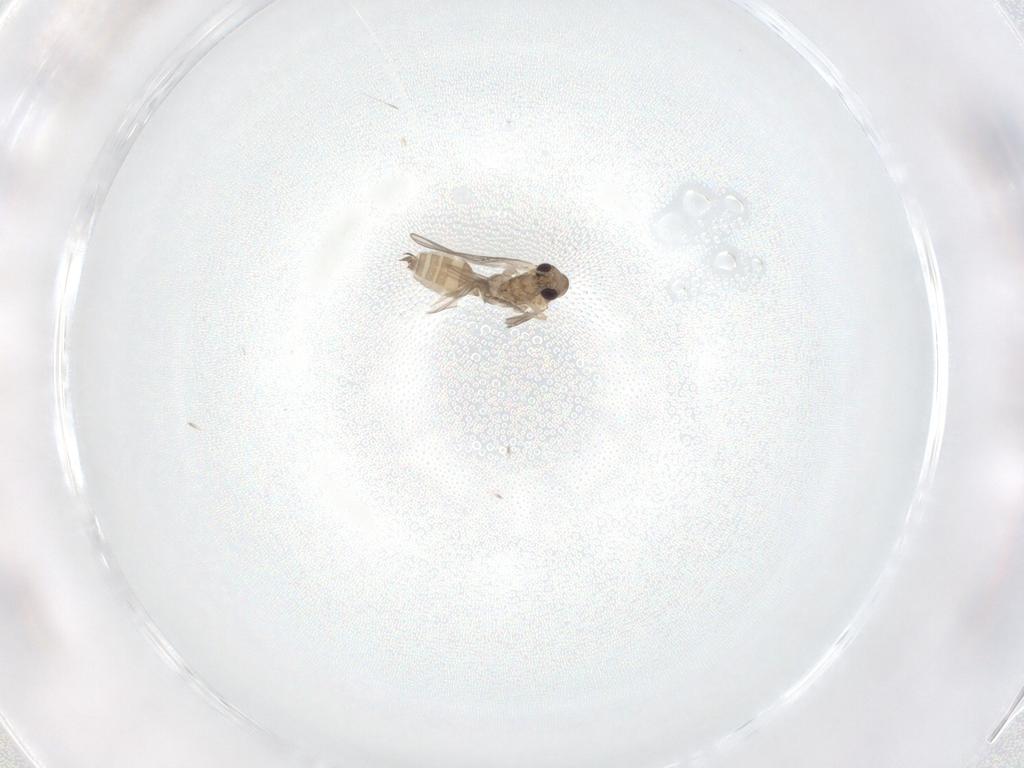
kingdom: Animalia
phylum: Arthropoda
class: Insecta
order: Diptera
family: Tipulidae
